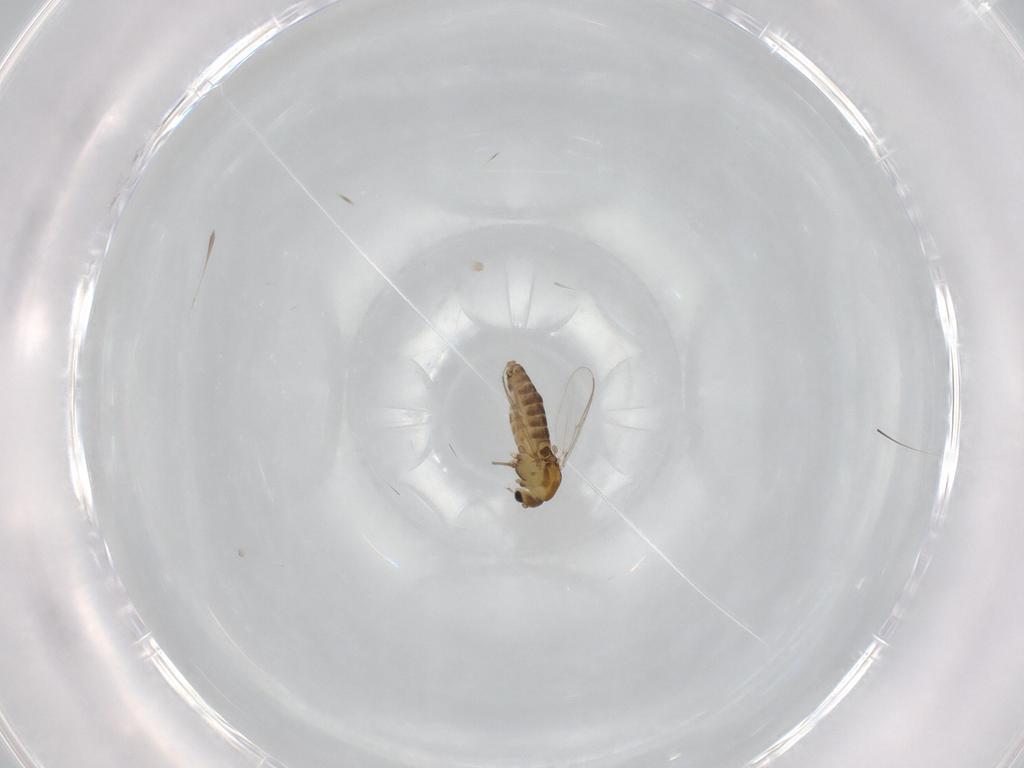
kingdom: Animalia
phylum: Arthropoda
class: Insecta
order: Diptera
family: Chironomidae
